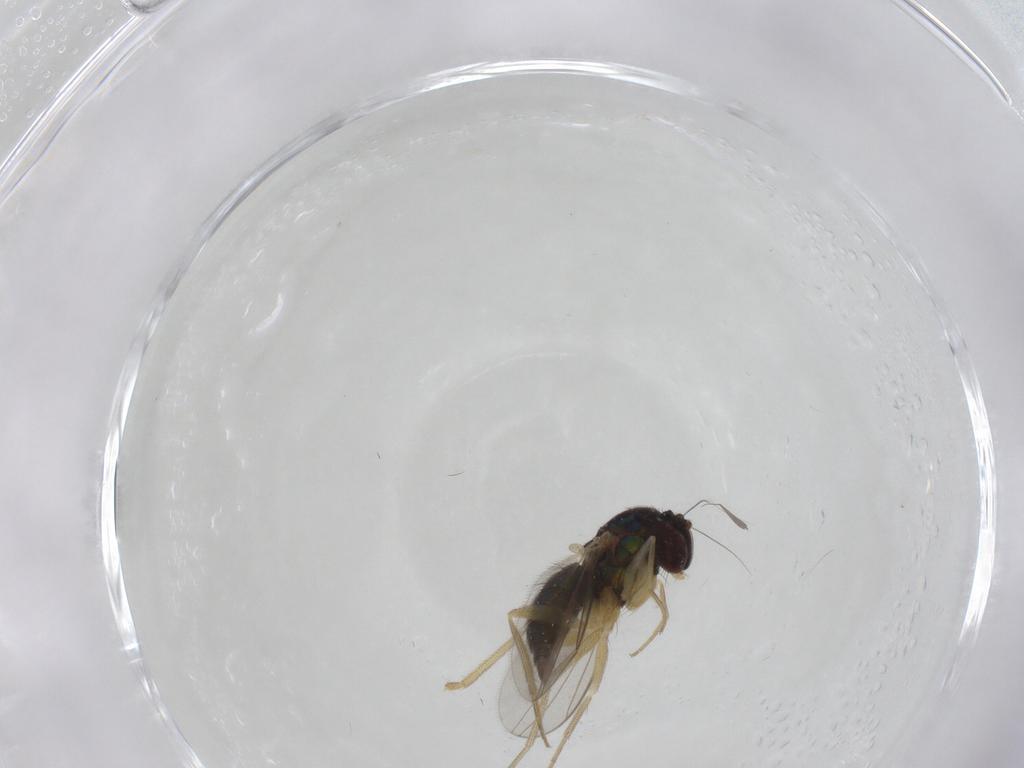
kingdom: Animalia
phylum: Arthropoda
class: Insecta
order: Diptera
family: Dolichopodidae
